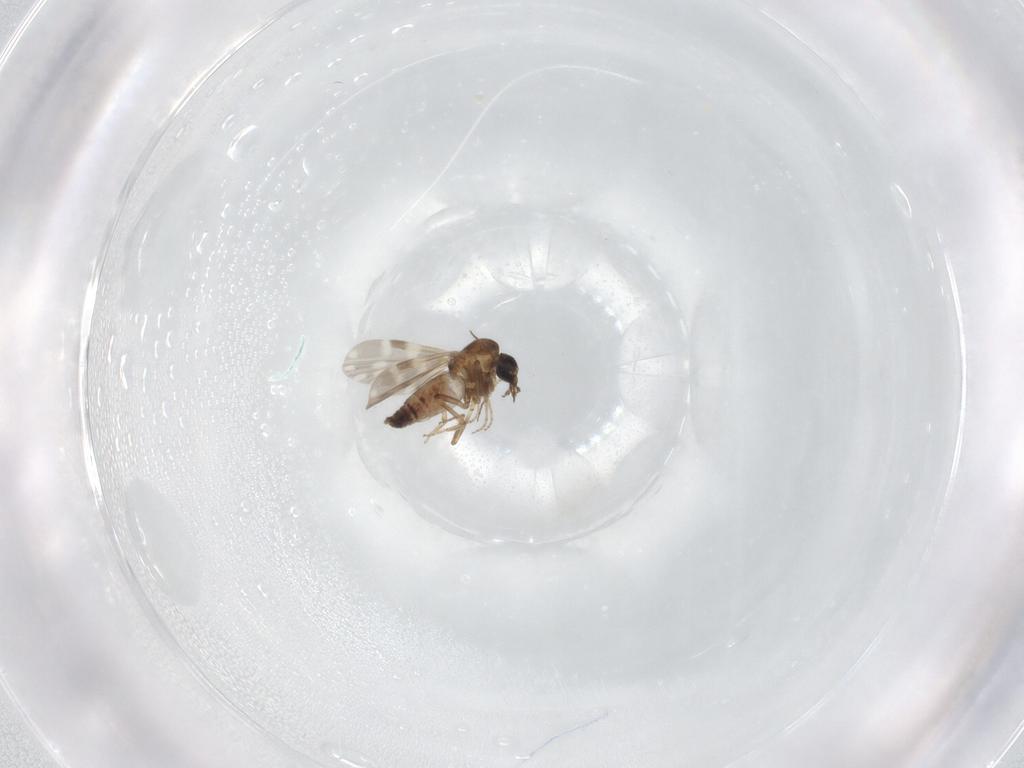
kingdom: Animalia
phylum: Arthropoda
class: Insecta
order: Diptera
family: Ceratopogonidae
